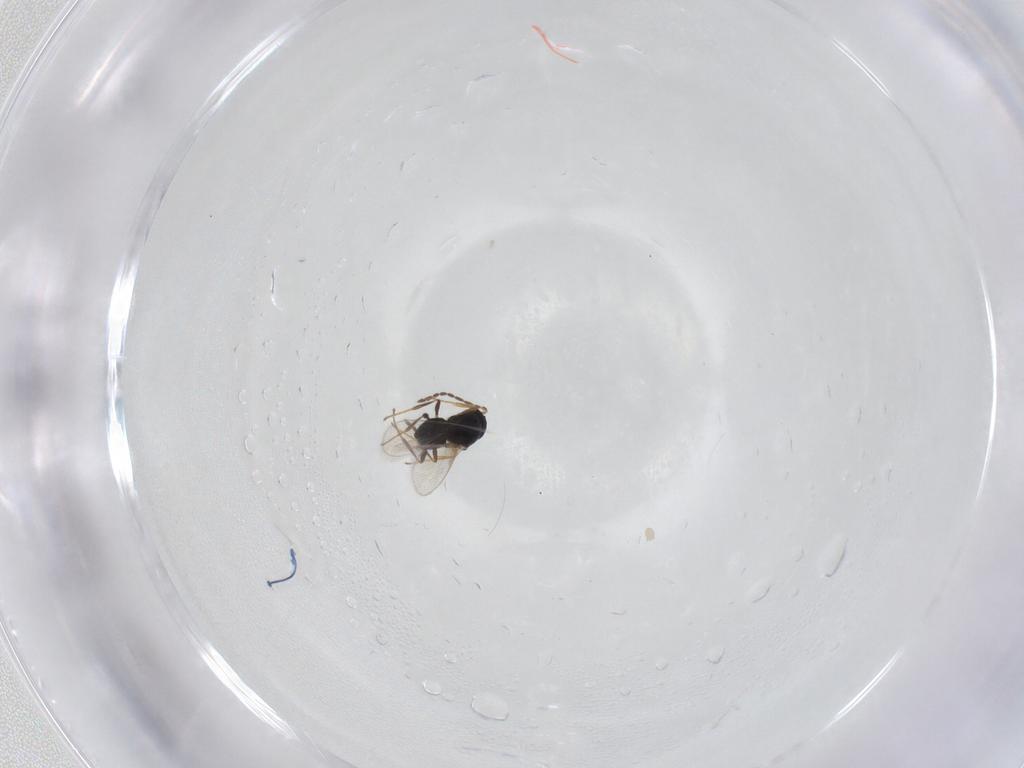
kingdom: Animalia
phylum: Arthropoda
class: Insecta
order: Hymenoptera
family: Platygastridae
